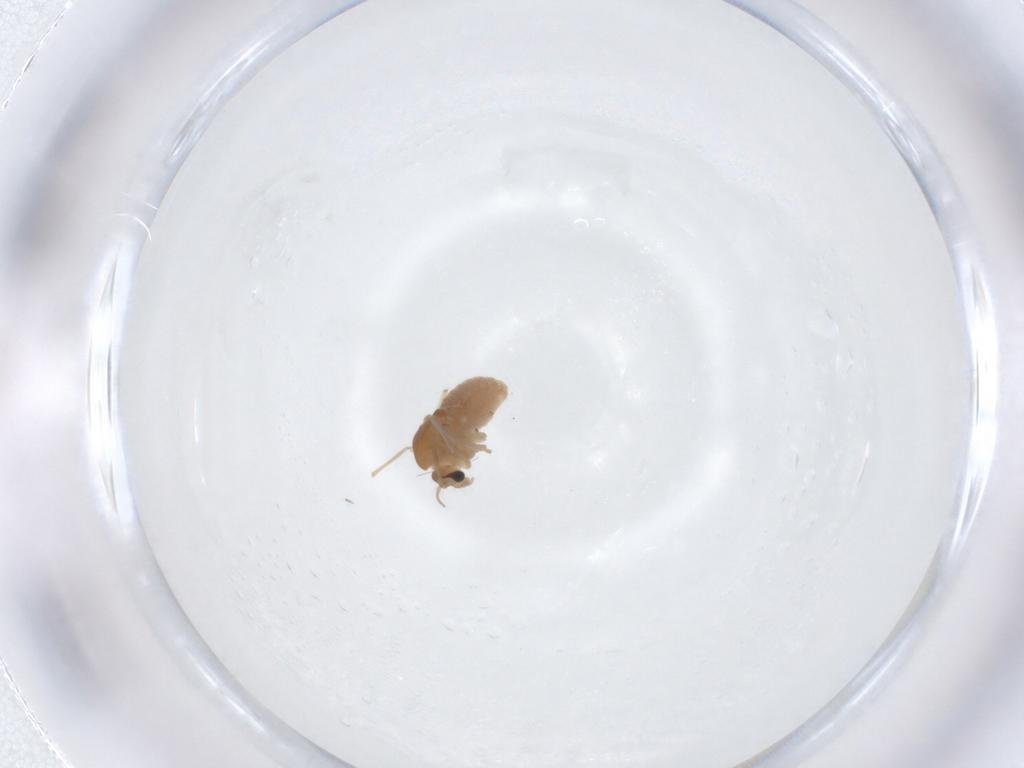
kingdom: Animalia
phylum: Arthropoda
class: Insecta
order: Diptera
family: Chironomidae
